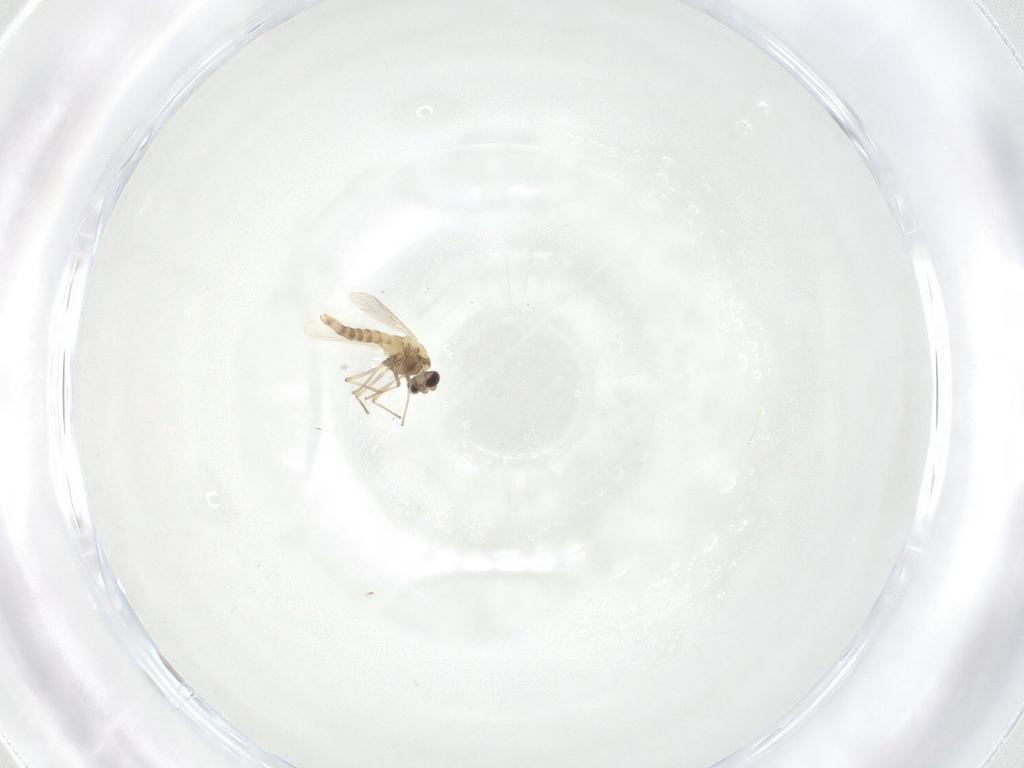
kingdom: Animalia
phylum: Arthropoda
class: Insecta
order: Diptera
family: Chironomidae
